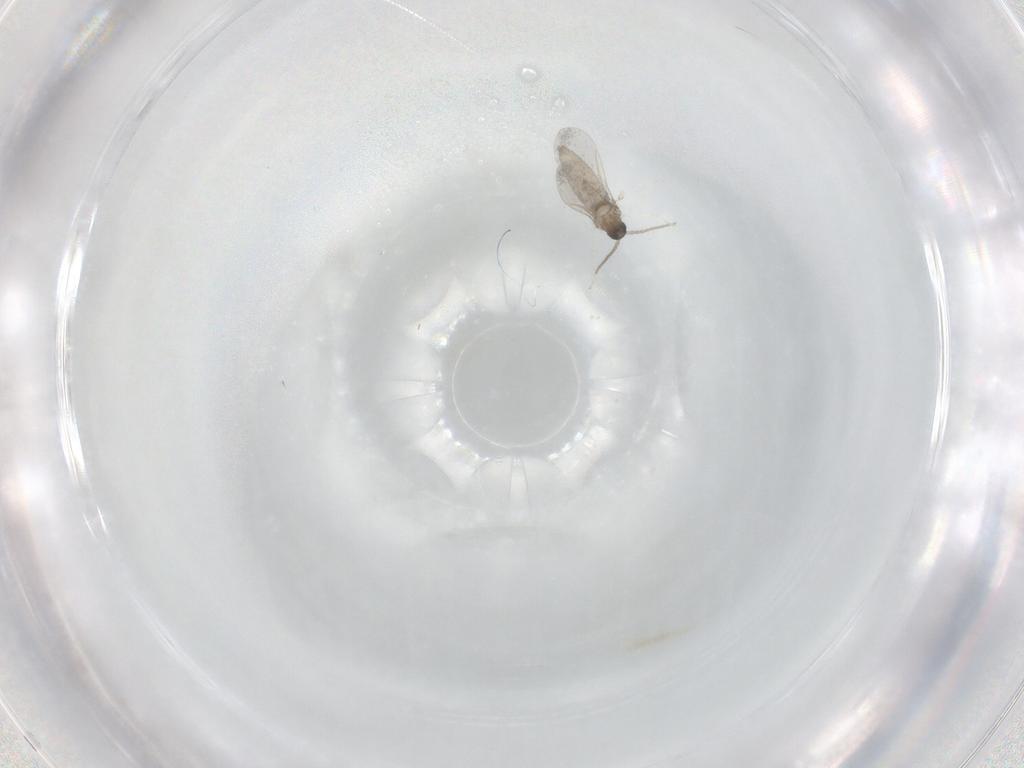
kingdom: Animalia
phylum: Arthropoda
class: Insecta
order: Diptera
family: Cecidomyiidae
